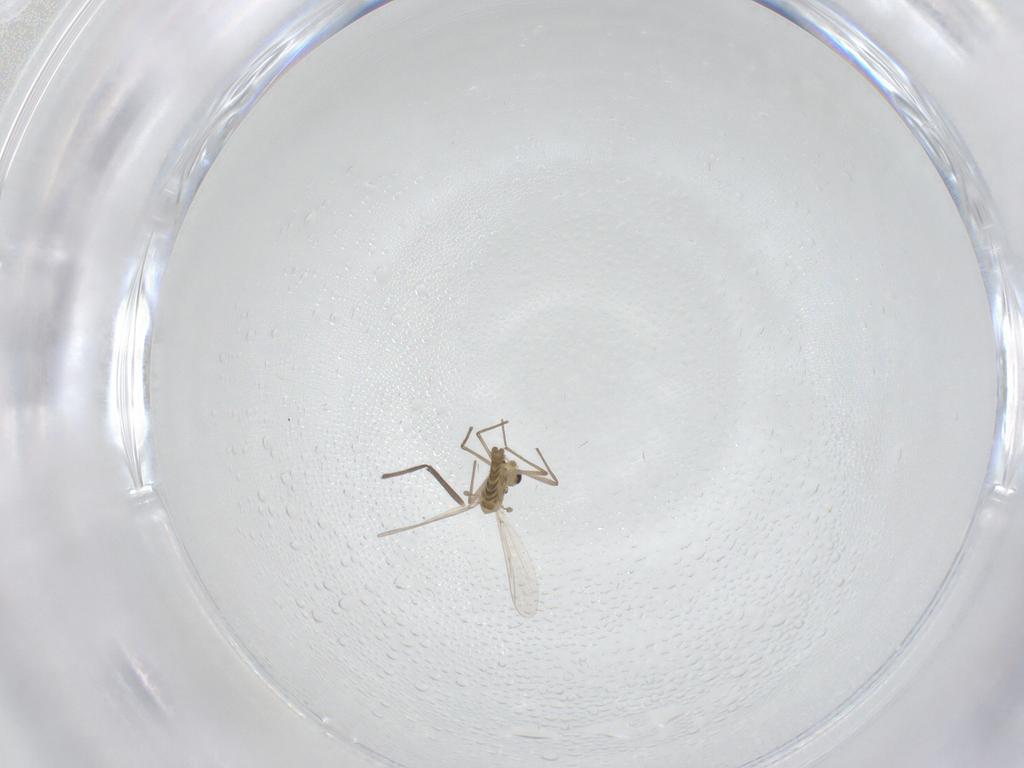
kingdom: Animalia
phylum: Arthropoda
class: Insecta
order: Diptera
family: Chironomidae
